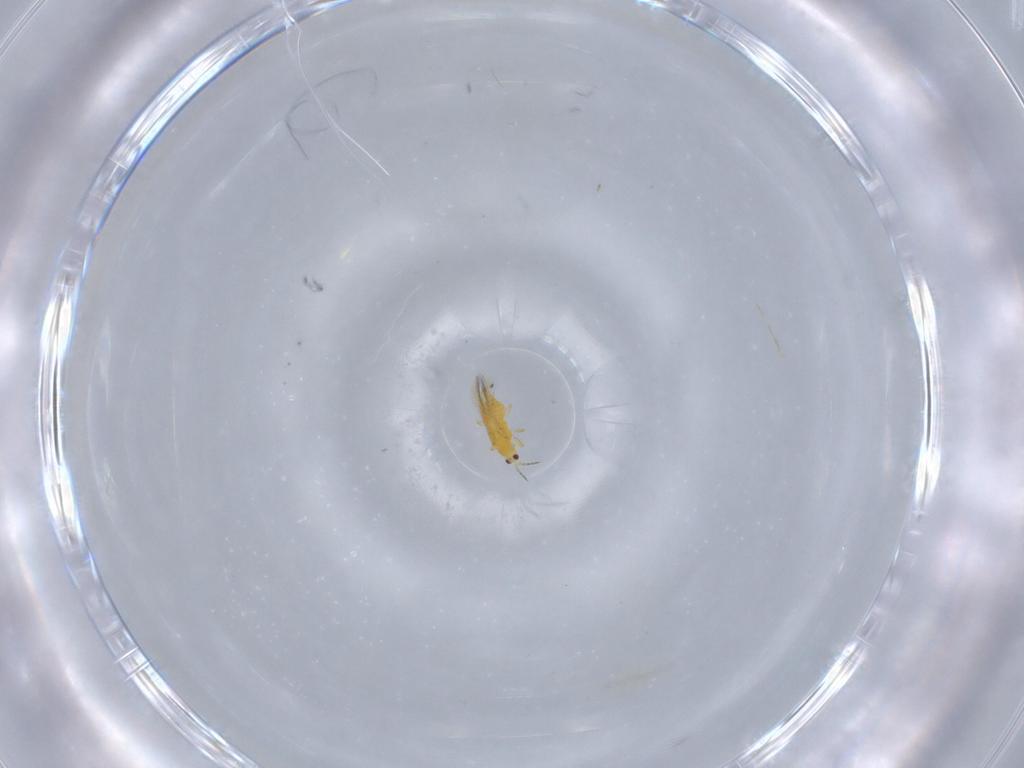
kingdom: Animalia
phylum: Arthropoda
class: Insecta
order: Thysanoptera
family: Thripidae
